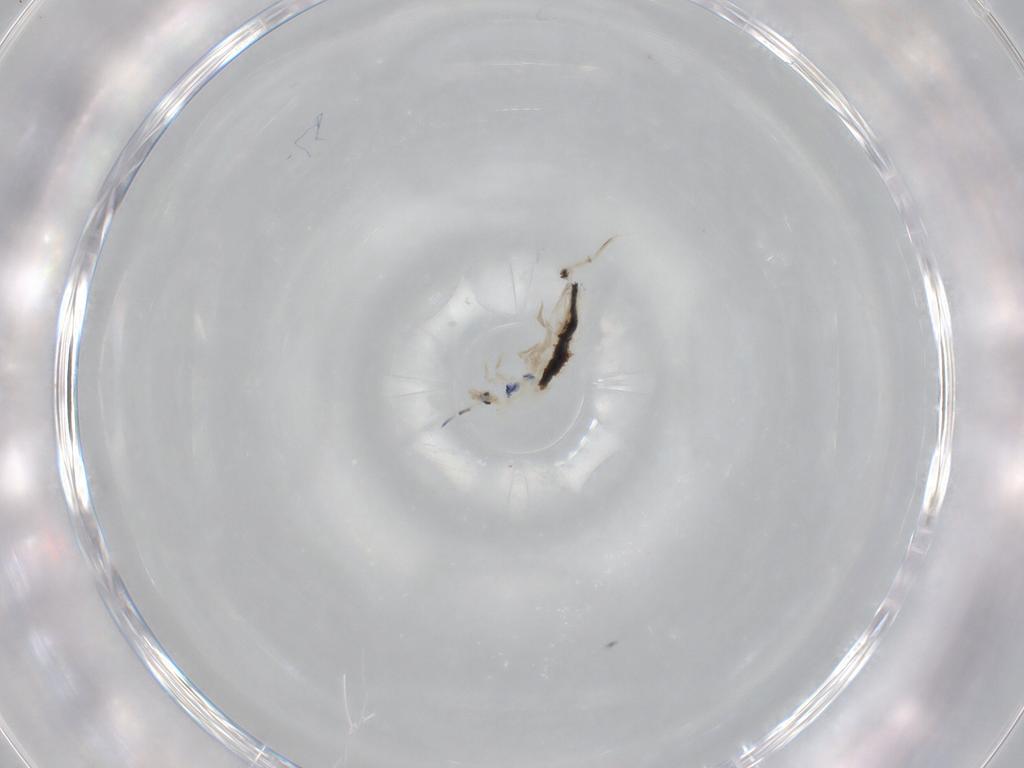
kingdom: Animalia
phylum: Arthropoda
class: Collembola
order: Entomobryomorpha
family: Entomobryidae
